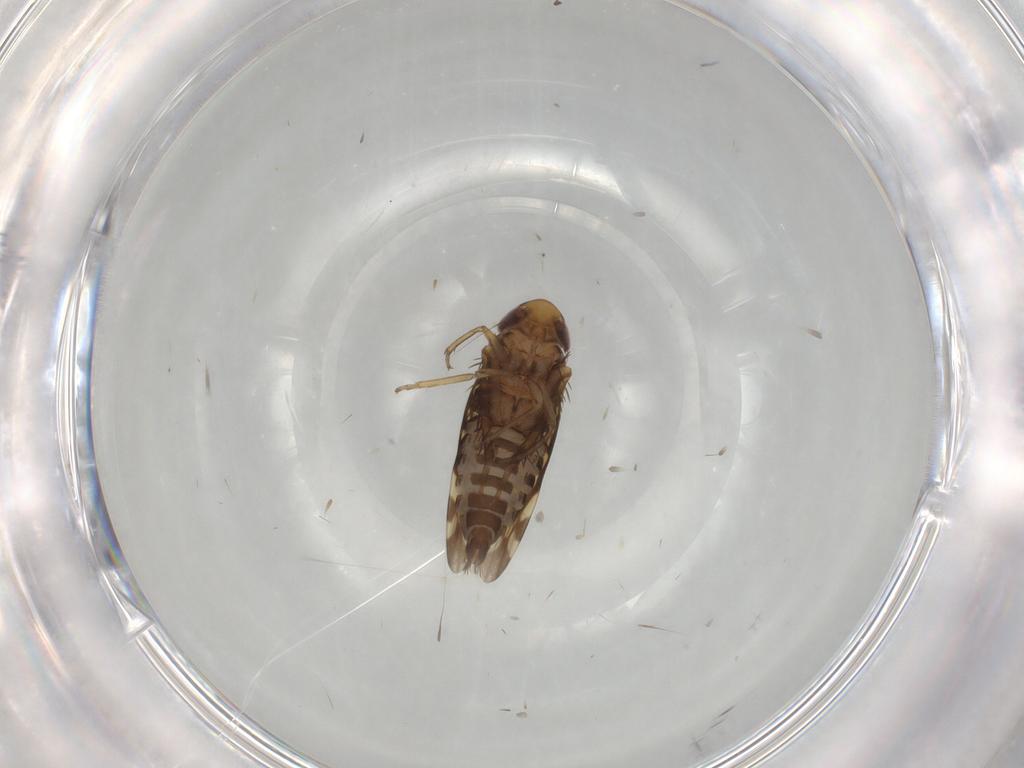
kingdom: Animalia
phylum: Arthropoda
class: Insecta
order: Hemiptera
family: Cicadellidae
